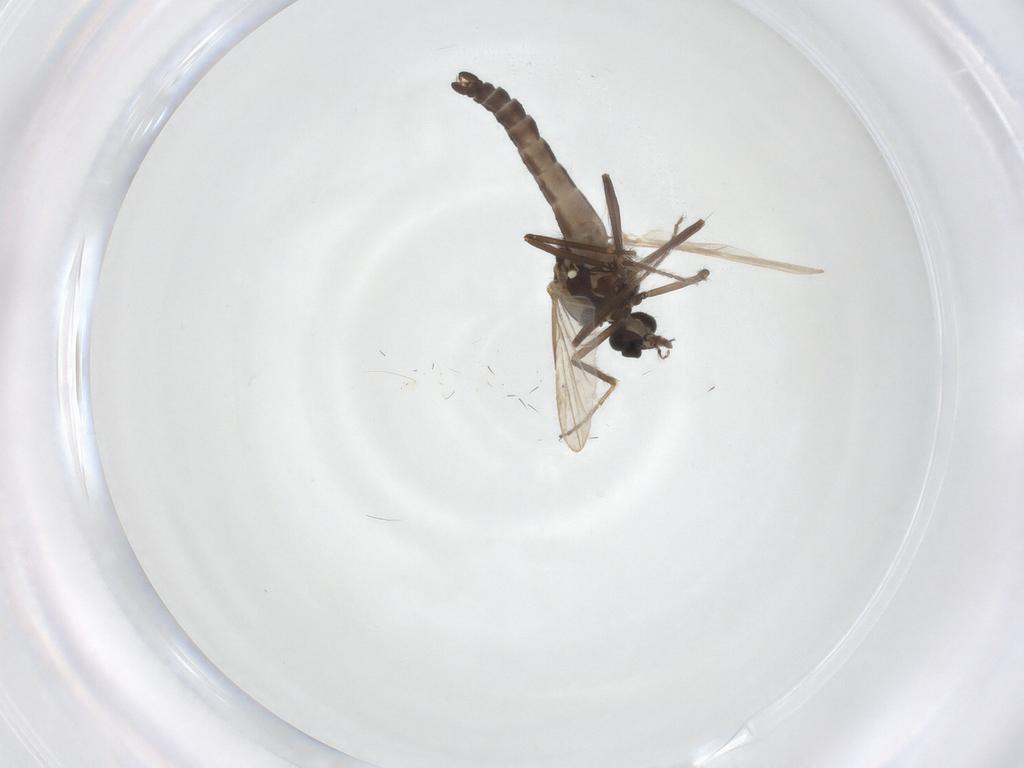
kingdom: Animalia
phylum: Arthropoda
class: Insecta
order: Diptera
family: Ceratopogonidae
